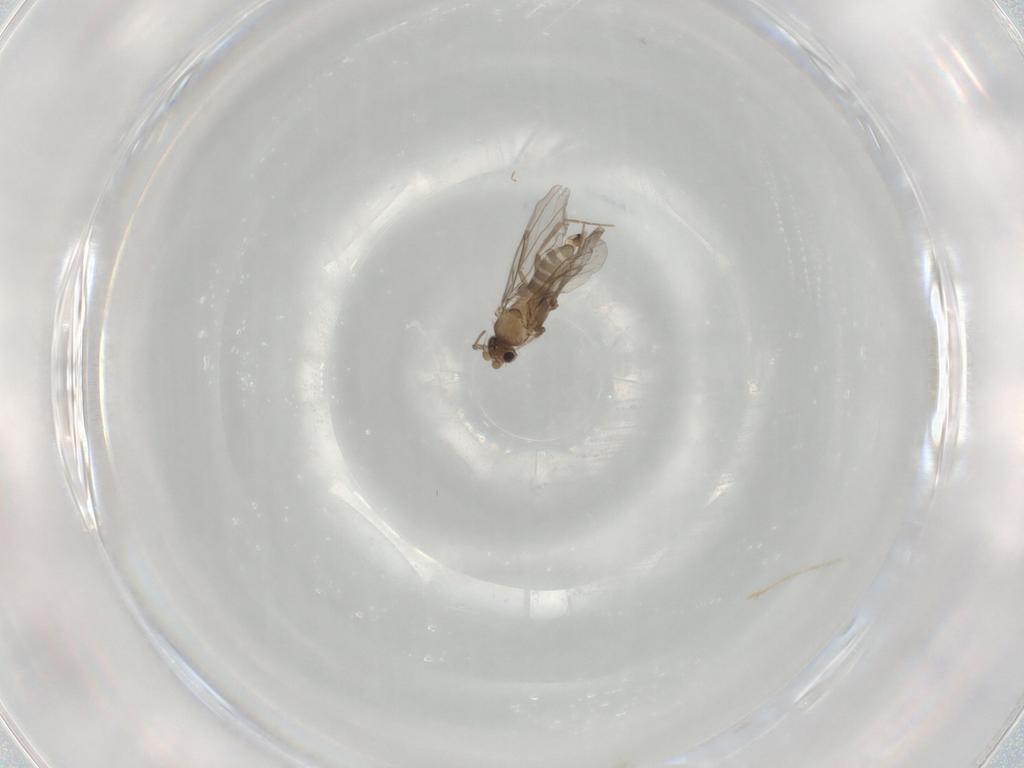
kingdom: Animalia
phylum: Arthropoda
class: Insecta
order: Diptera
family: Cecidomyiidae
